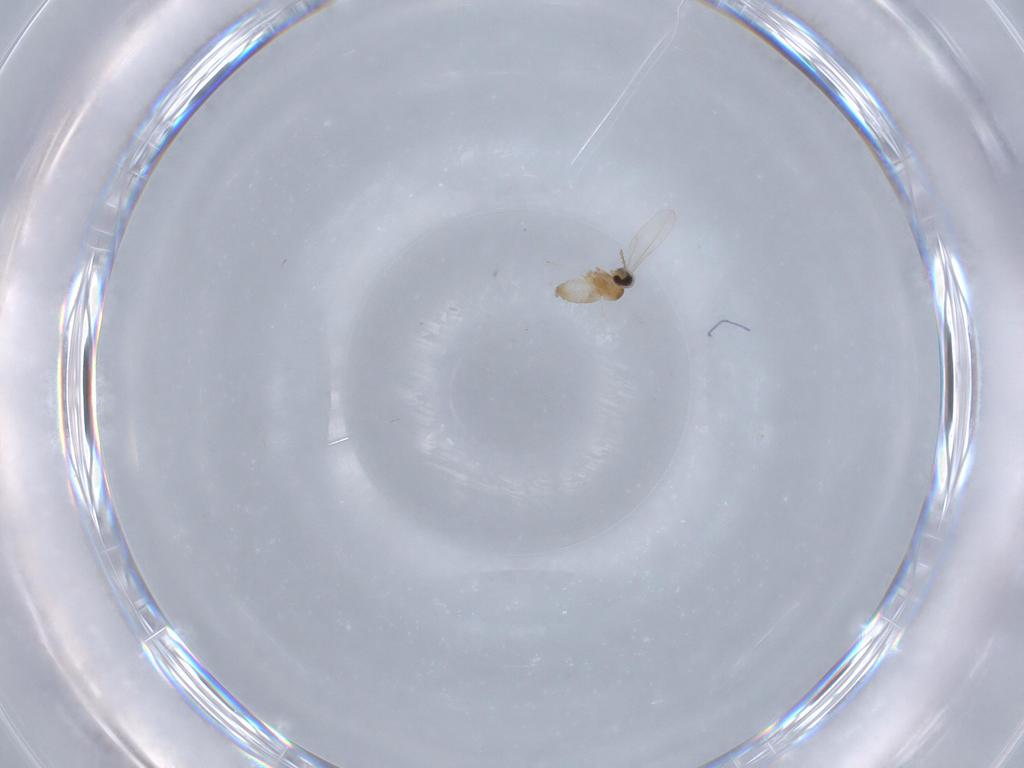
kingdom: Animalia
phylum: Arthropoda
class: Insecta
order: Diptera
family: Cecidomyiidae
